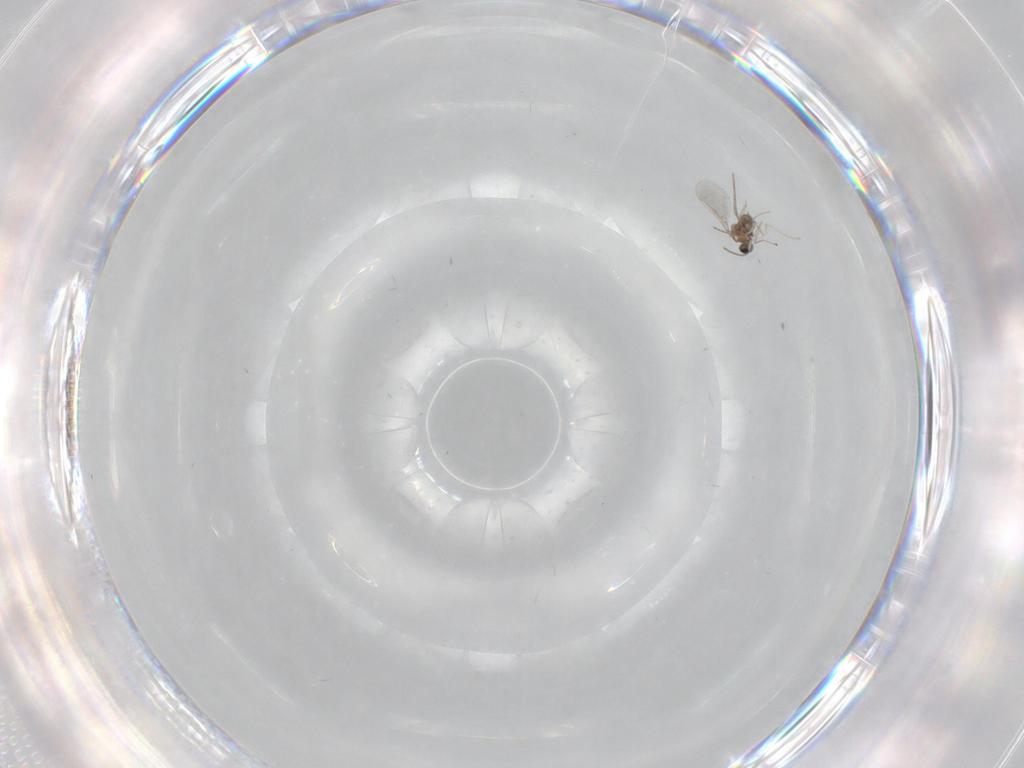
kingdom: Animalia
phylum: Arthropoda
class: Insecta
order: Diptera
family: Cecidomyiidae
